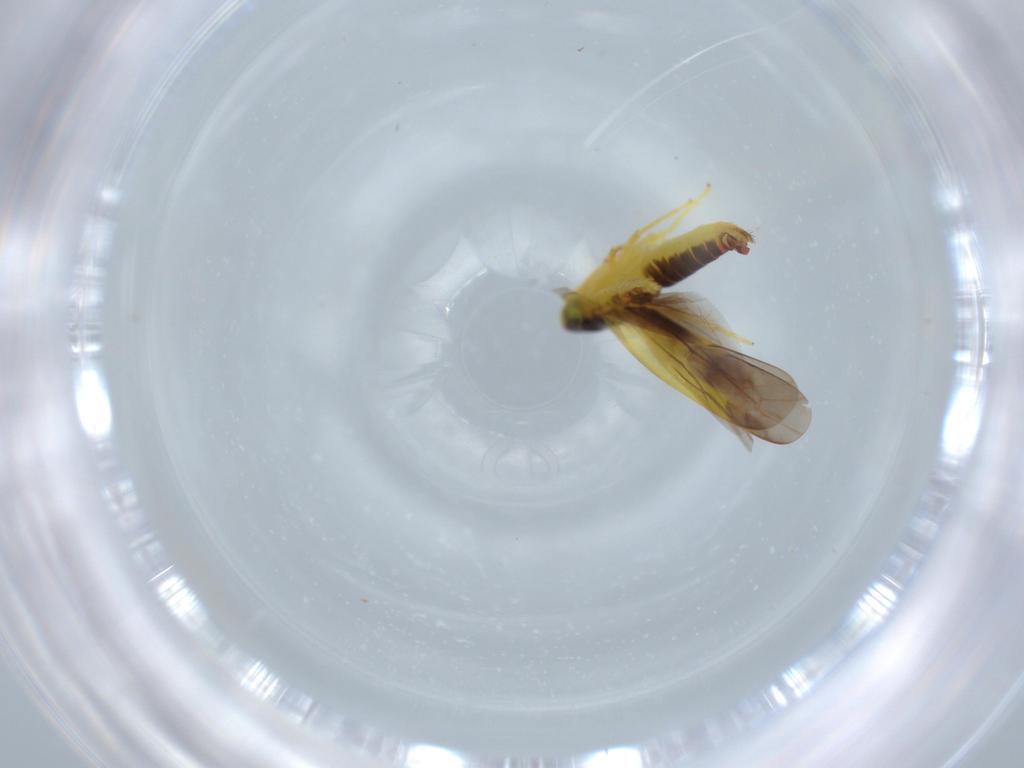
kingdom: Animalia
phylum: Arthropoda
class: Insecta
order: Hemiptera
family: Cicadellidae
